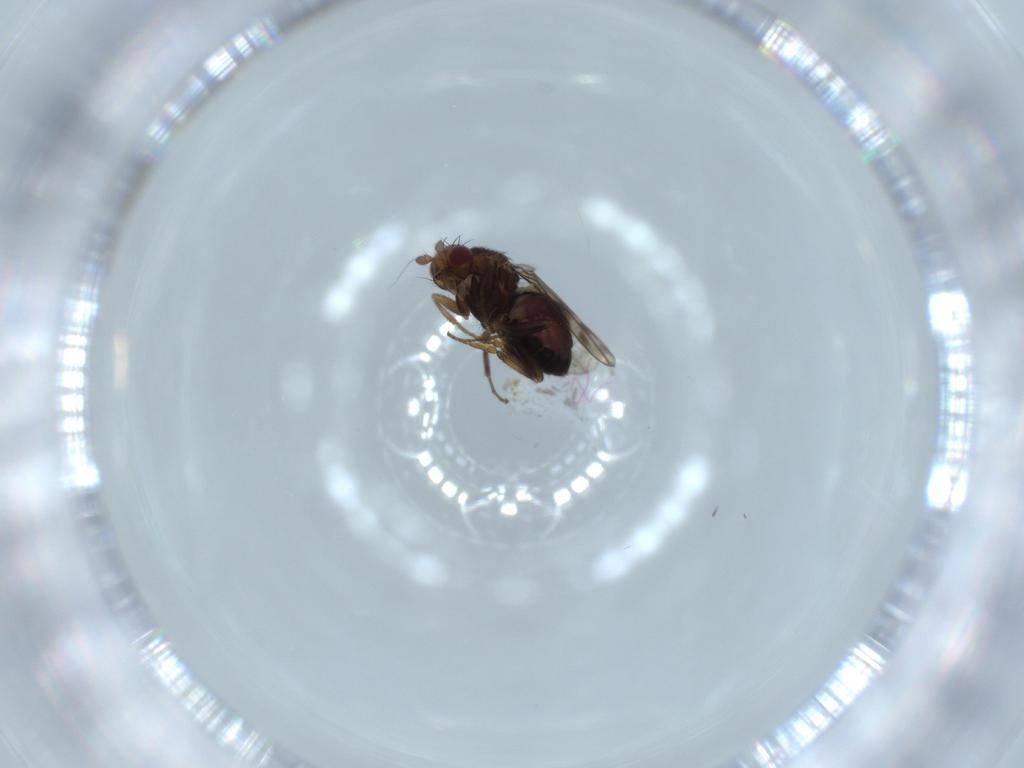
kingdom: Animalia
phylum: Arthropoda
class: Insecta
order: Diptera
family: Sphaeroceridae
